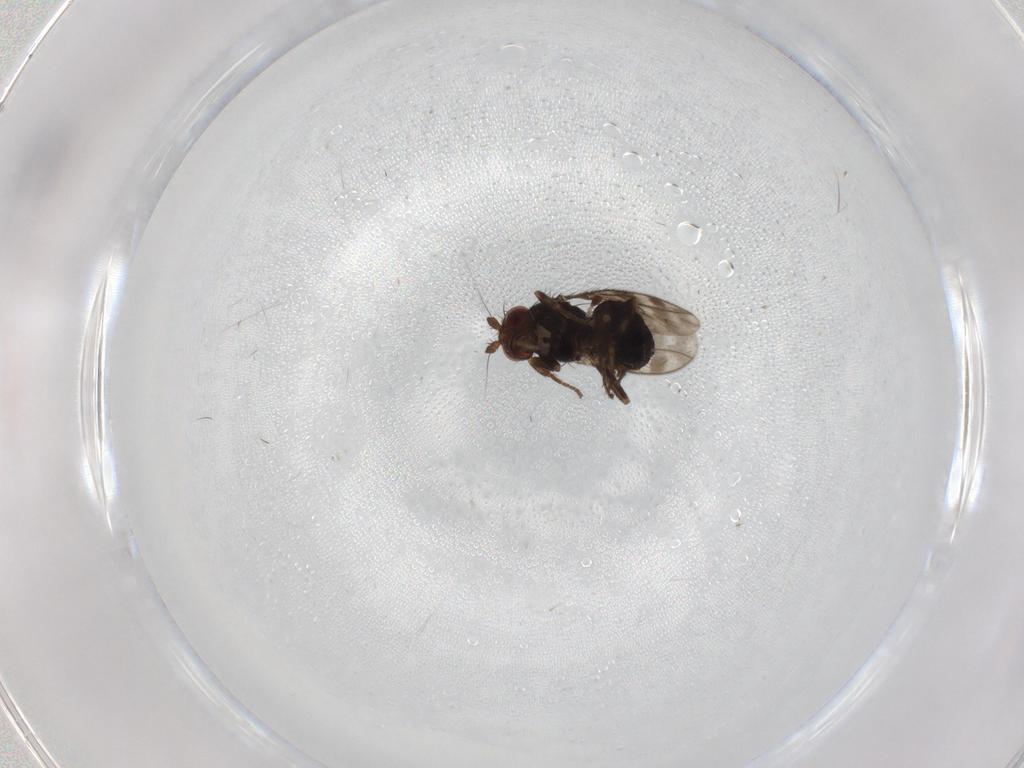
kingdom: Animalia
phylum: Arthropoda
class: Insecta
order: Diptera
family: Sphaeroceridae
